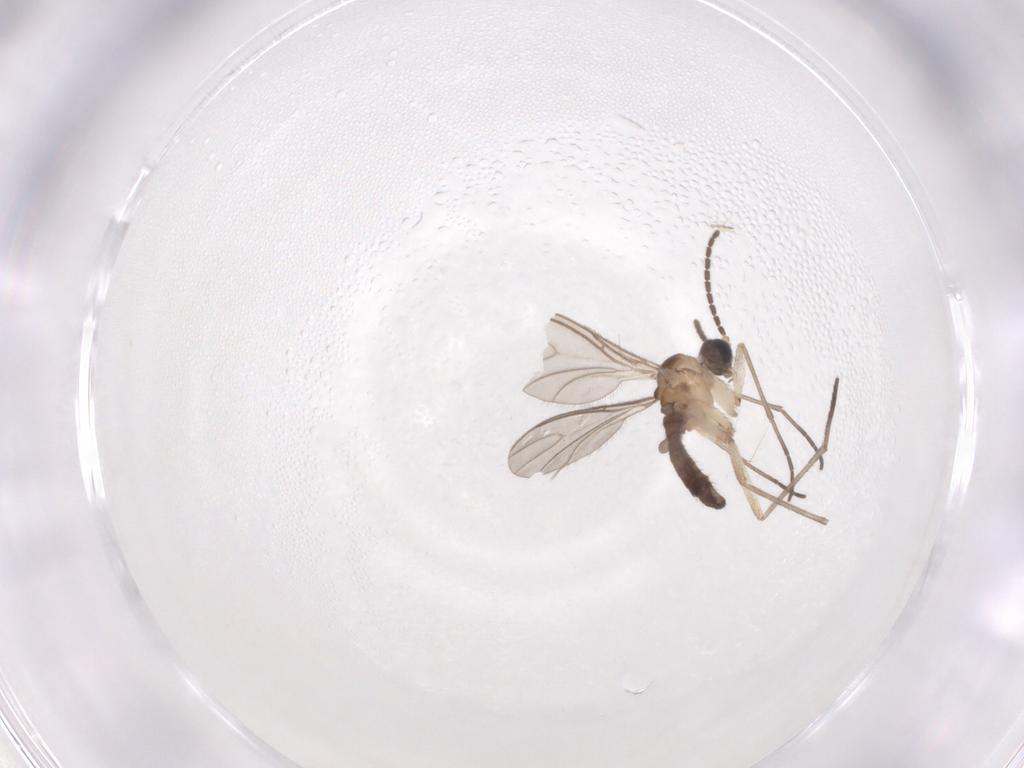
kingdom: Animalia
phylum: Arthropoda
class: Insecta
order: Diptera
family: Sciaridae
